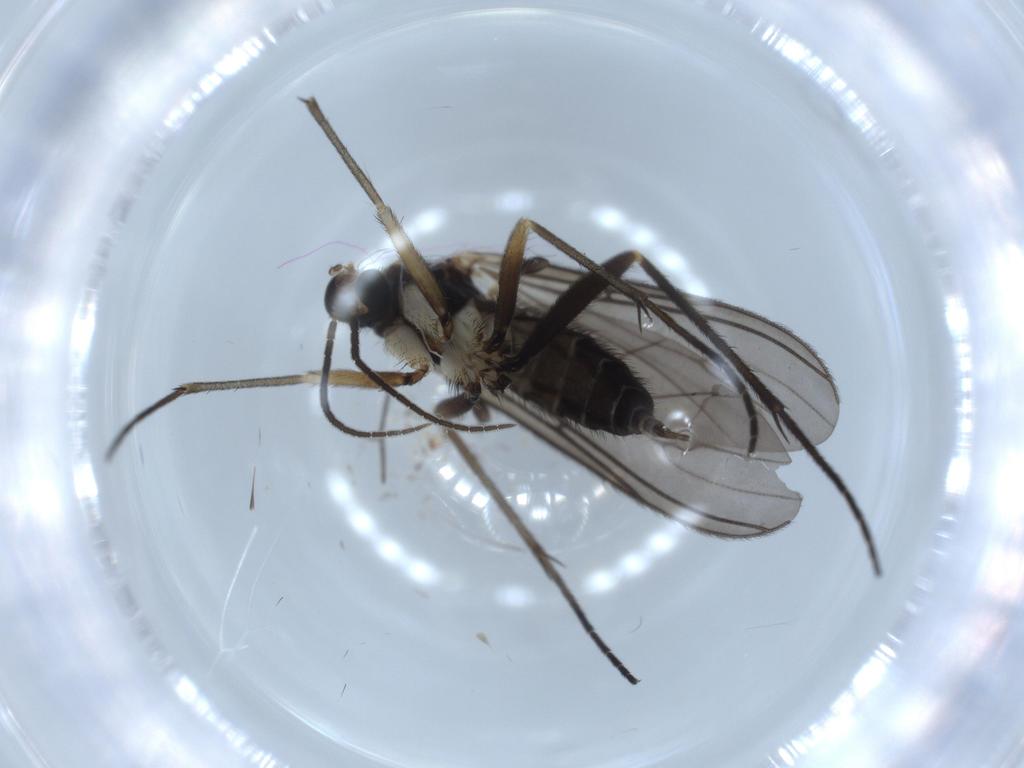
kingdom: Animalia
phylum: Arthropoda
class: Insecta
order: Diptera
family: Sciaridae
